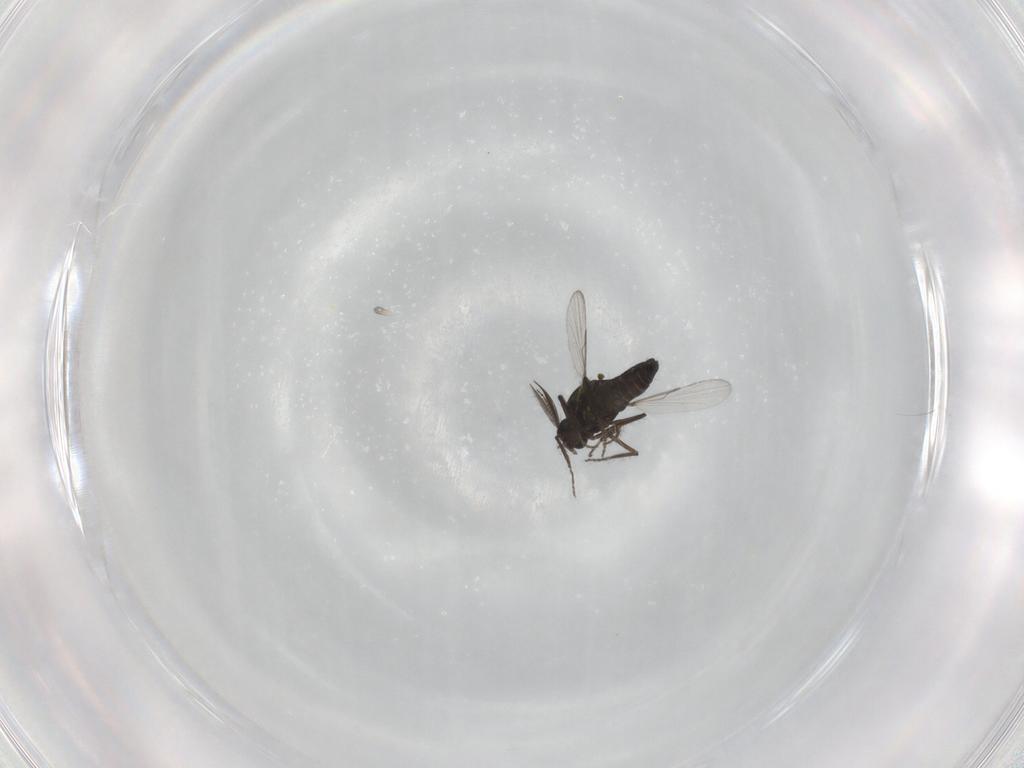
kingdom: Animalia
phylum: Arthropoda
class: Insecta
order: Diptera
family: Ceratopogonidae
